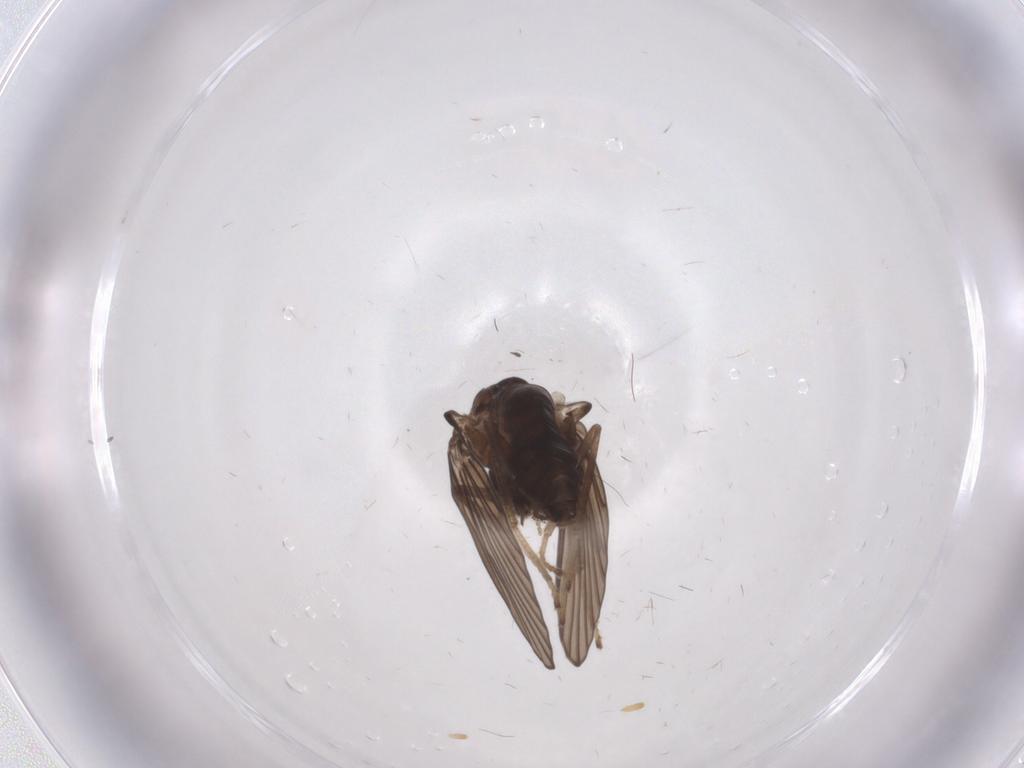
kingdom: Animalia
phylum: Arthropoda
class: Insecta
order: Diptera
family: Psychodidae
